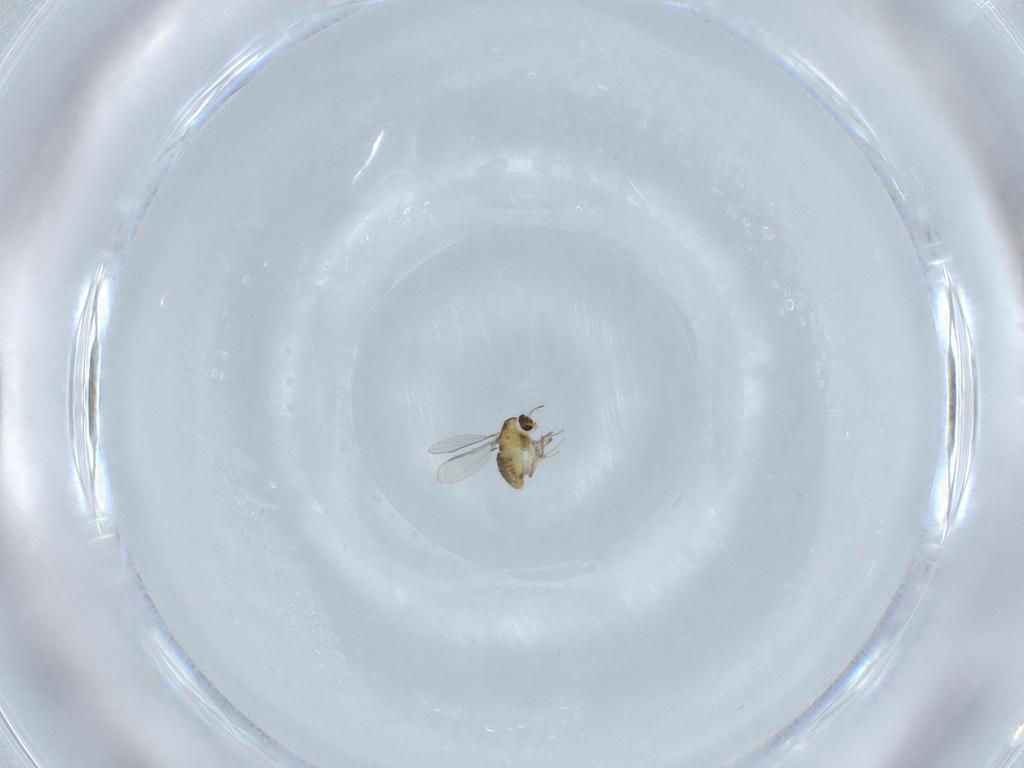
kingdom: Animalia
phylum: Arthropoda
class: Insecta
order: Diptera
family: Chironomidae
